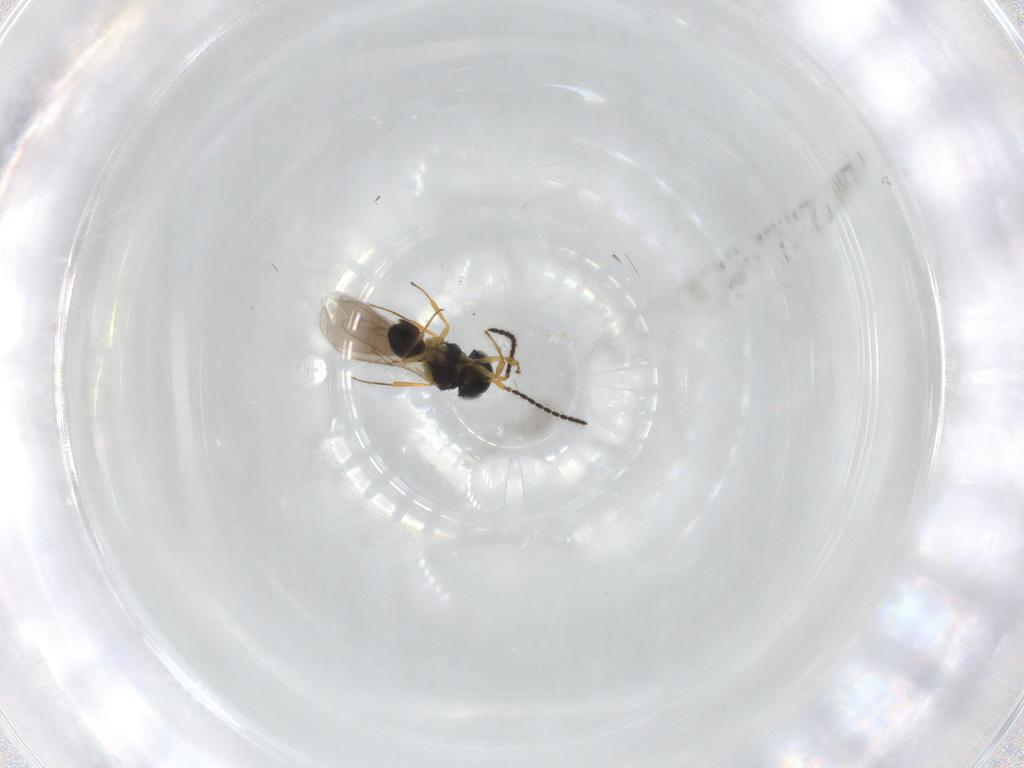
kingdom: Animalia
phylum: Arthropoda
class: Insecta
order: Hymenoptera
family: Scelionidae
